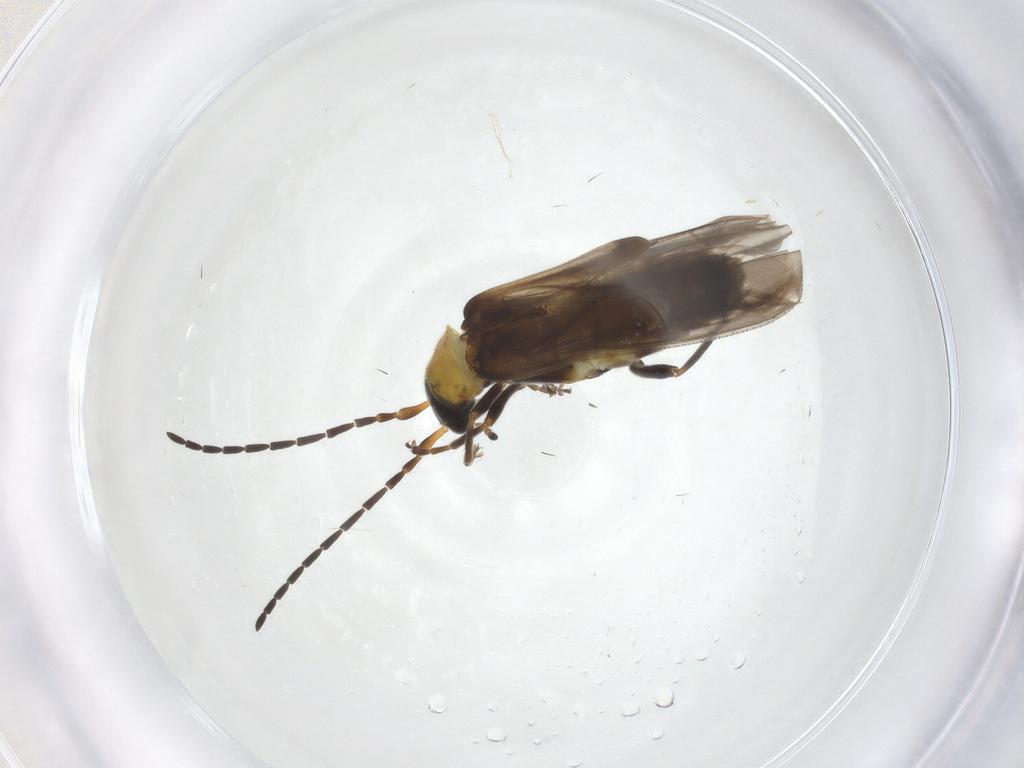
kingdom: Animalia
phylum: Arthropoda
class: Insecta
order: Coleoptera
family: Cantharidae
